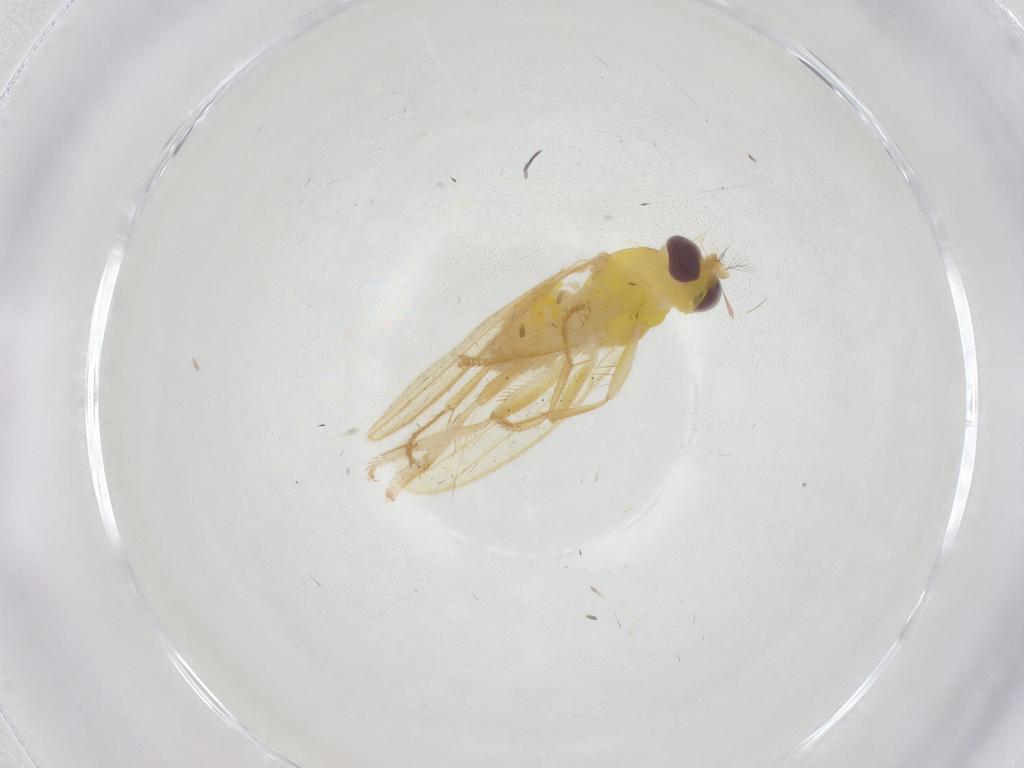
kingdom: Animalia
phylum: Arthropoda
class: Insecta
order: Diptera
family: Periscelididae
